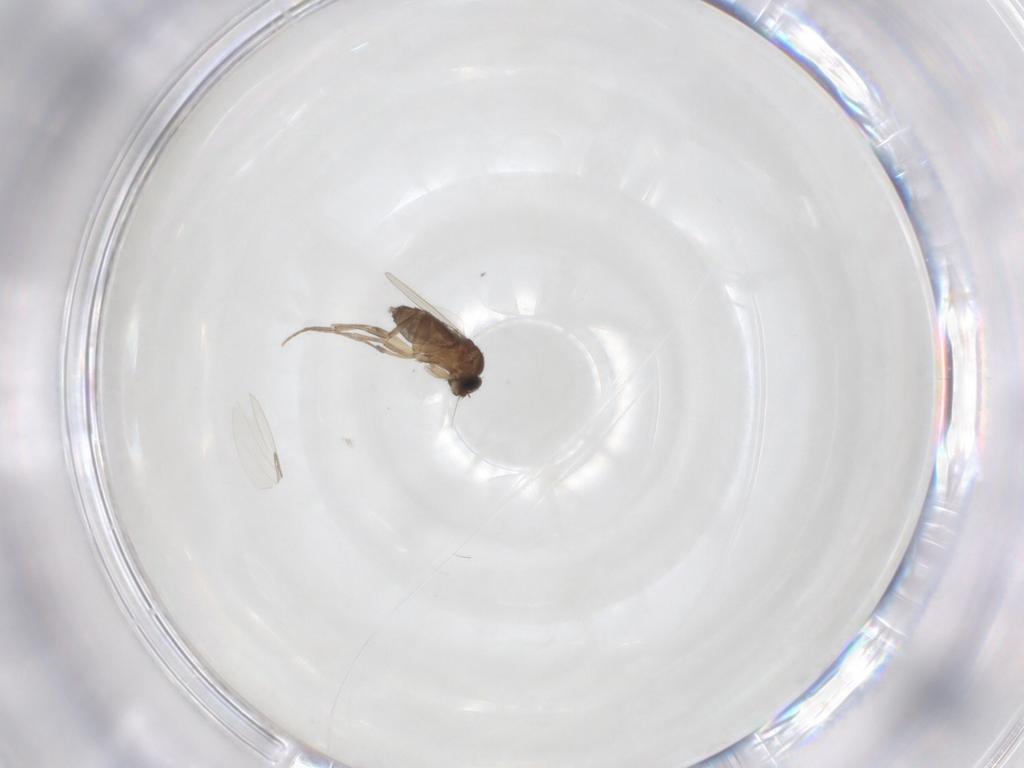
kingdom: Animalia
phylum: Arthropoda
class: Insecta
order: Diptera
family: Phoridae
